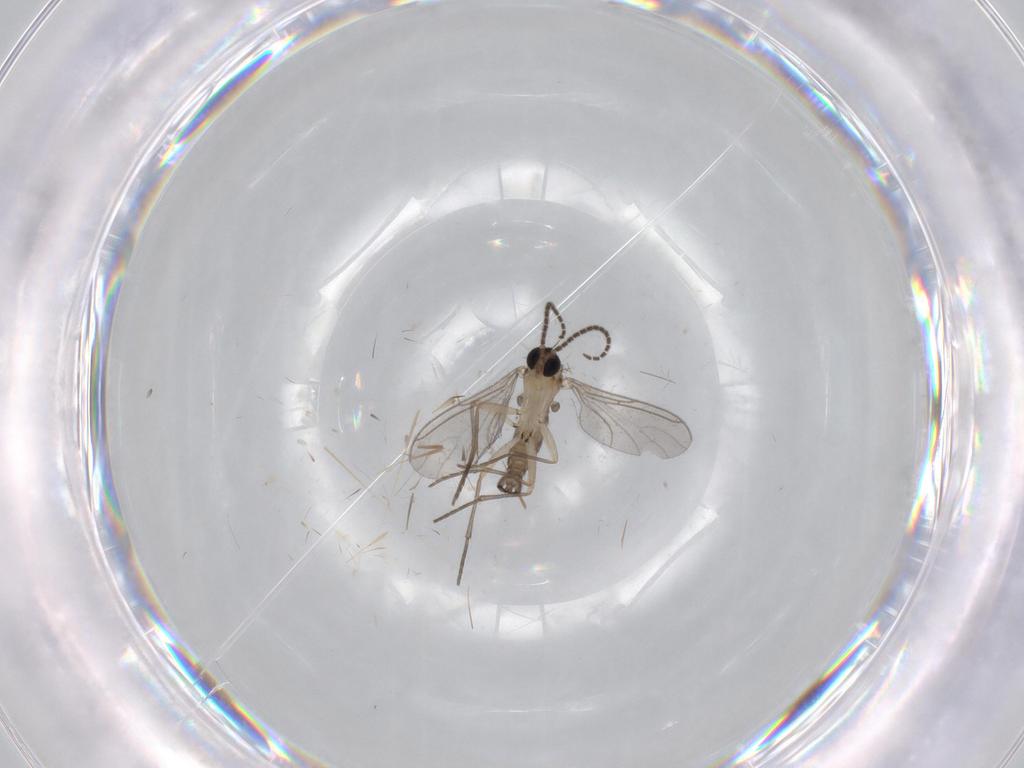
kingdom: Animalia
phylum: Arthropoda
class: Insecta
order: Diptera
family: Sciaridae
